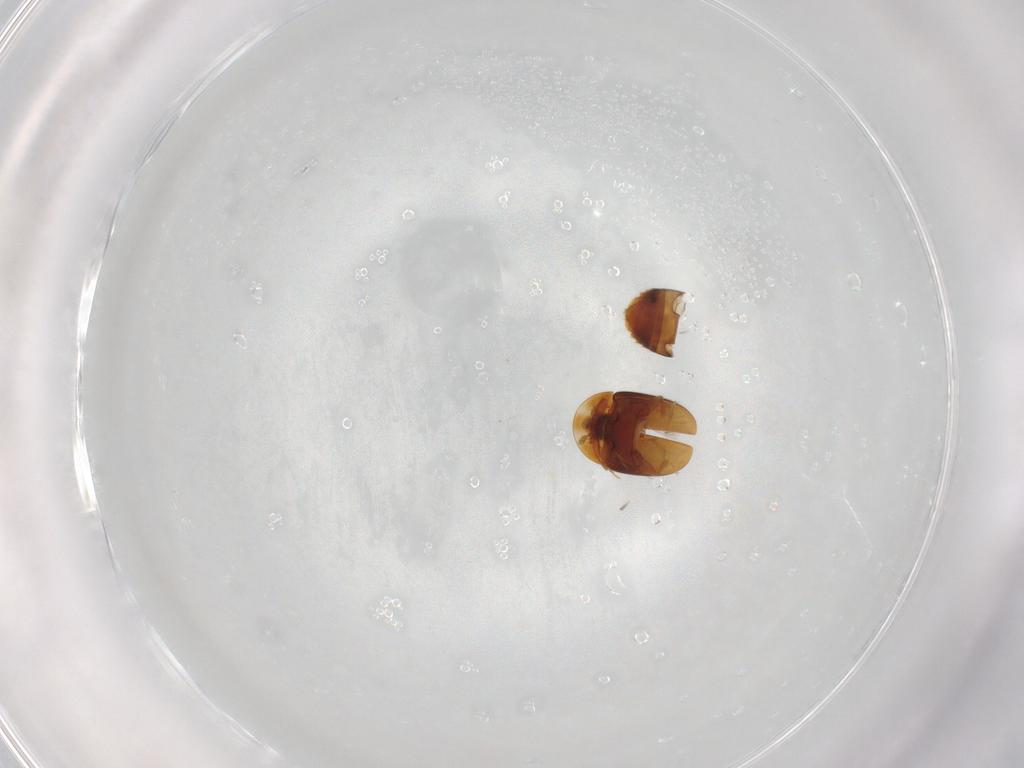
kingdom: Animalia
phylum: Arthropoda
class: Insecta
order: Coleoptera
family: Corylophidae
